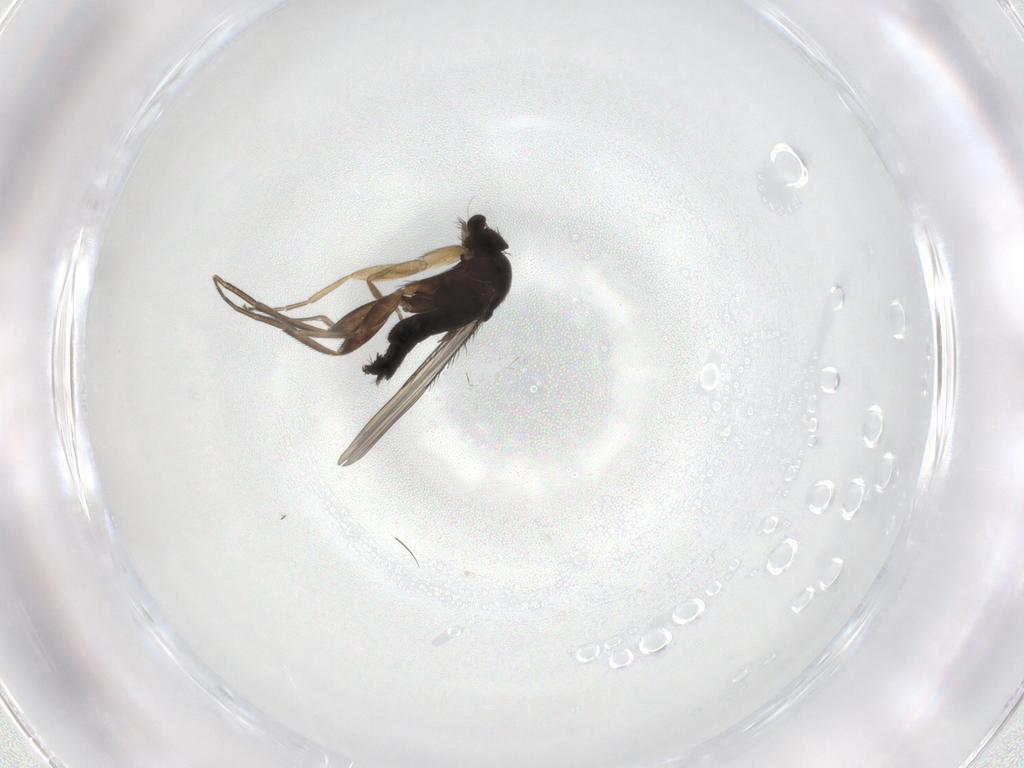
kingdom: Animalia
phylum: Arthropoda
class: Insecta
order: Diptera
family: Phoridae
